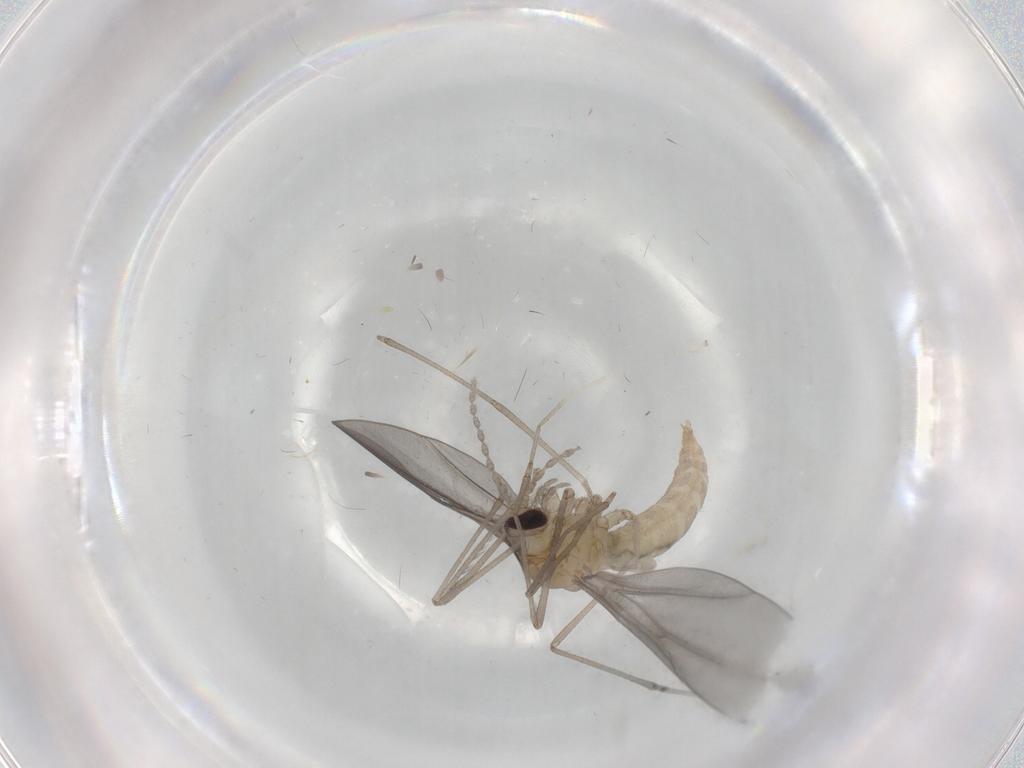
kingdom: Animalia
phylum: Arthropoda
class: Insecta
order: Diptera
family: Cecidomyiidae
